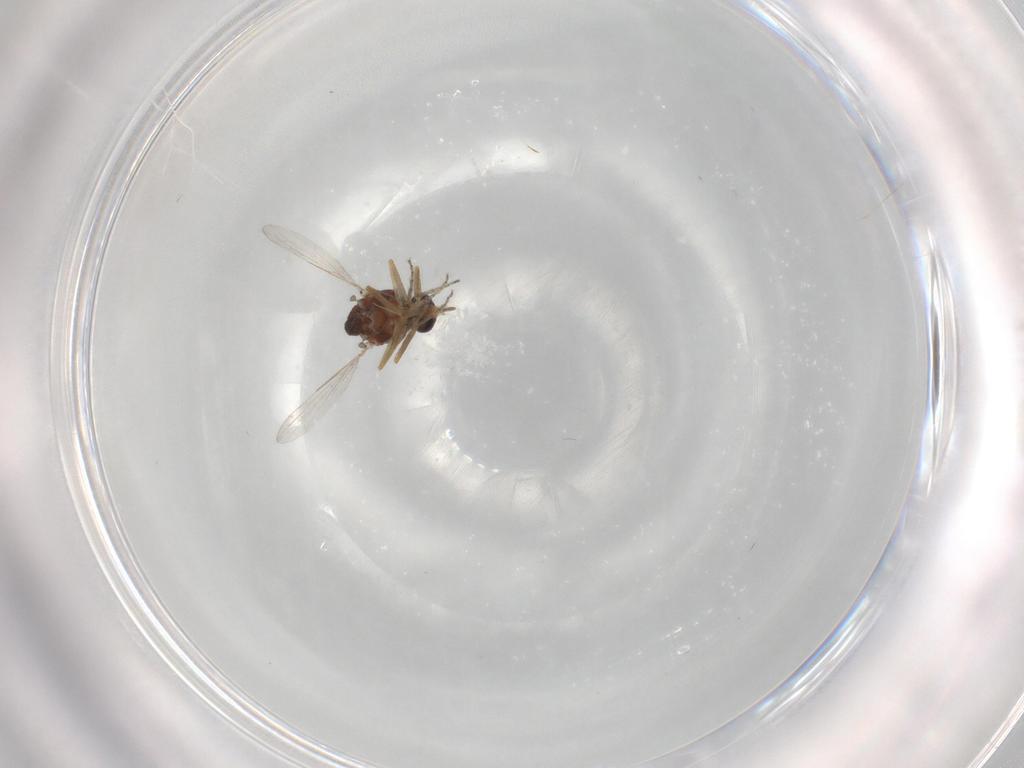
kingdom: Animalia
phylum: Arthropoda
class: Insecta
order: Diptera
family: Ceratopogonidae
